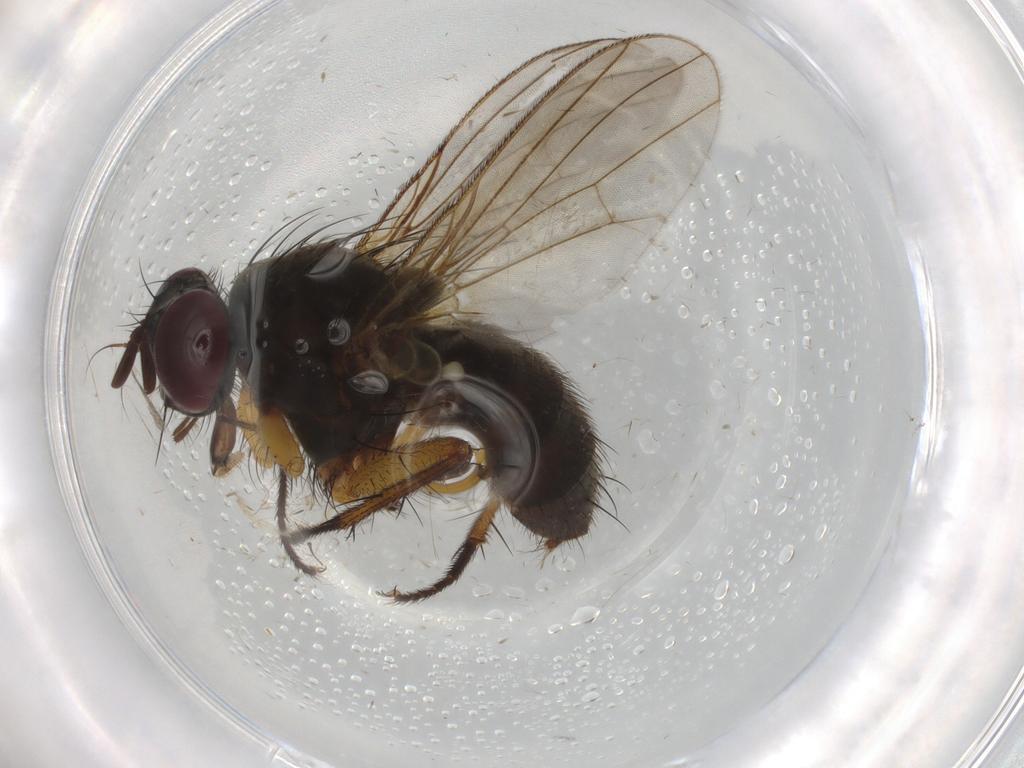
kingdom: Animalia
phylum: Arthropoda
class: Insecta
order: Diptera
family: Muscidae
